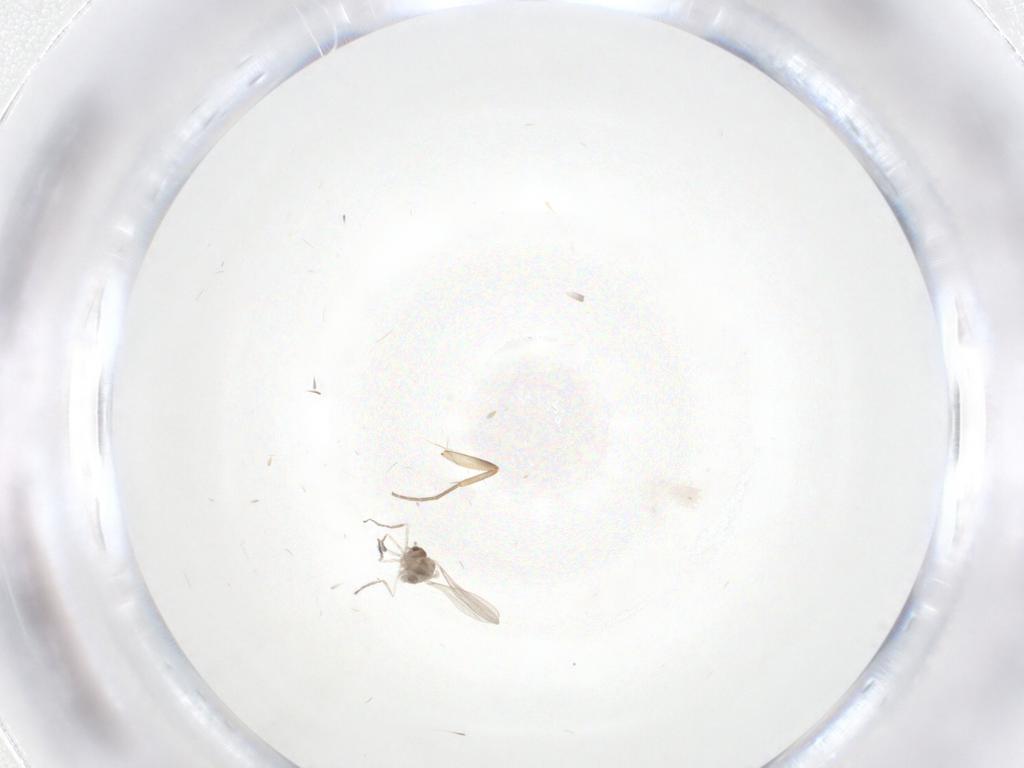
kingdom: Animalia
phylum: Arthropoda
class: Insecta
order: Diptera
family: Cecidomyiidae
